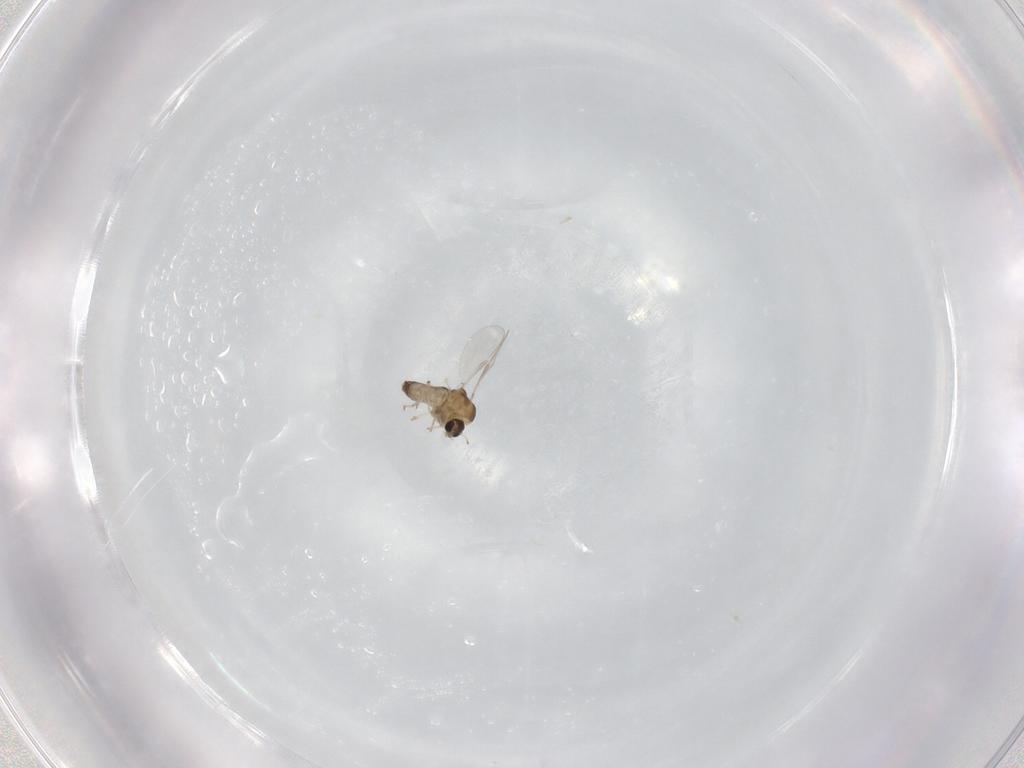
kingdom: Animalia
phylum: Arthropoda
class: Insecta
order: Diptera
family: Chironomidae
